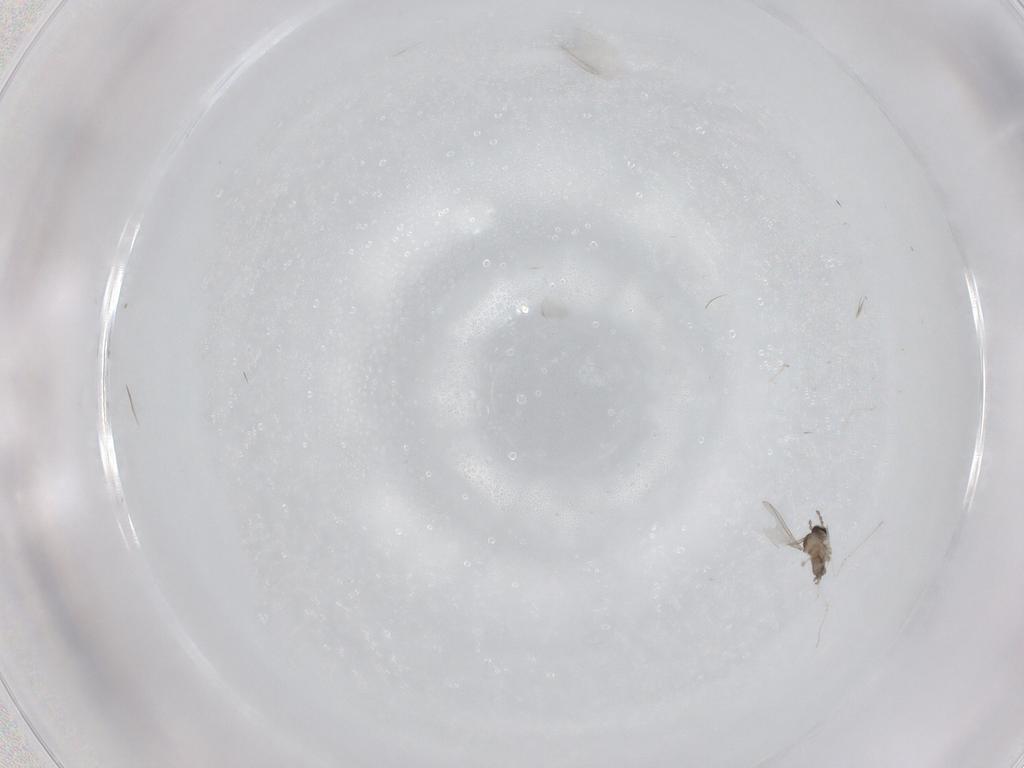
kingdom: Animalia
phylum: Arthropoda
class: Insecta
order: Diptera
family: Cecidomyiidae
